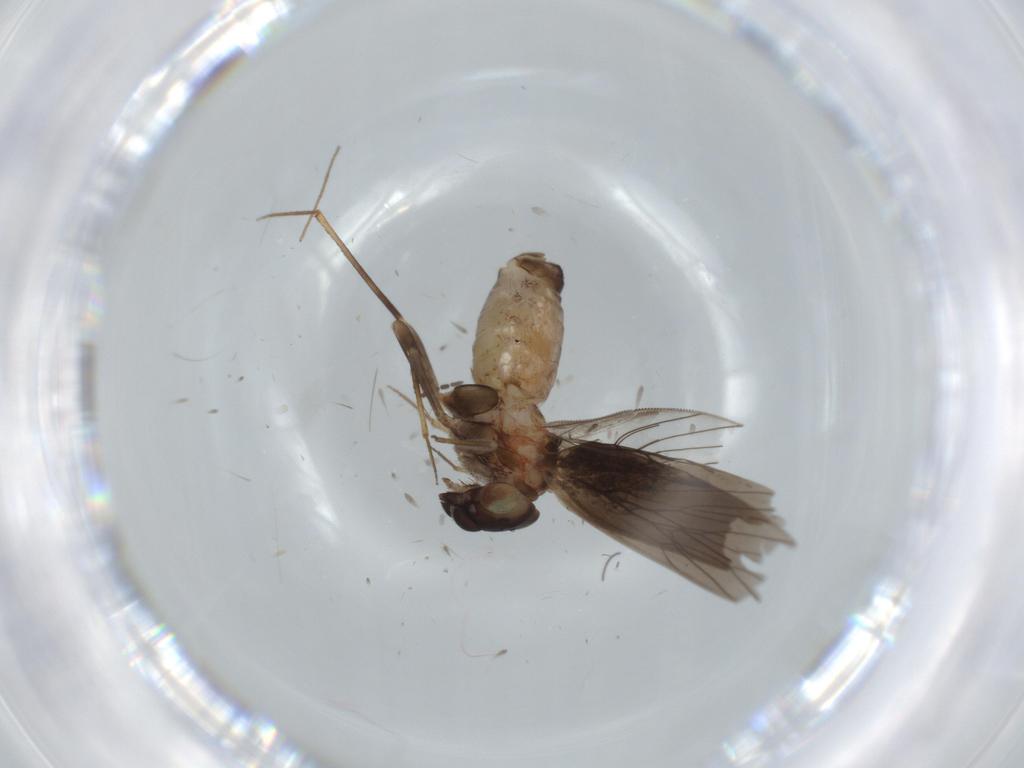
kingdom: Animalia
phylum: Arthropoda
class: Insecta
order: Psocodea
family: Lepidopsocidae
